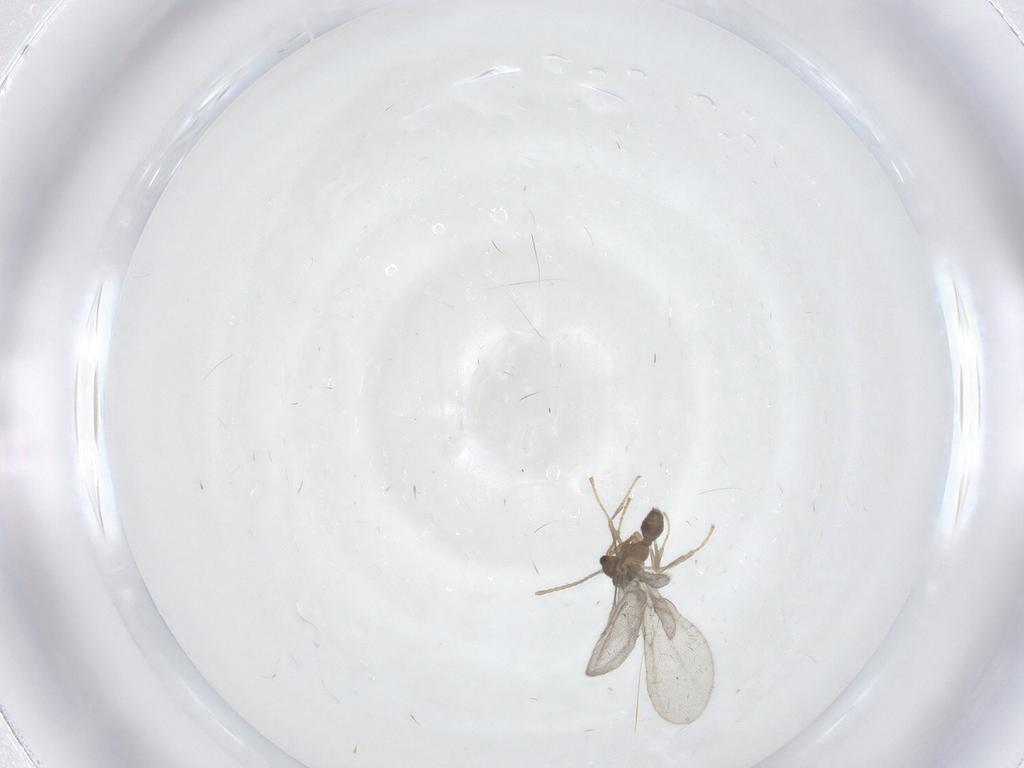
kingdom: Animalia
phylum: Arthropoda
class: Insecta
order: Hymenoptera
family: Formicidae
